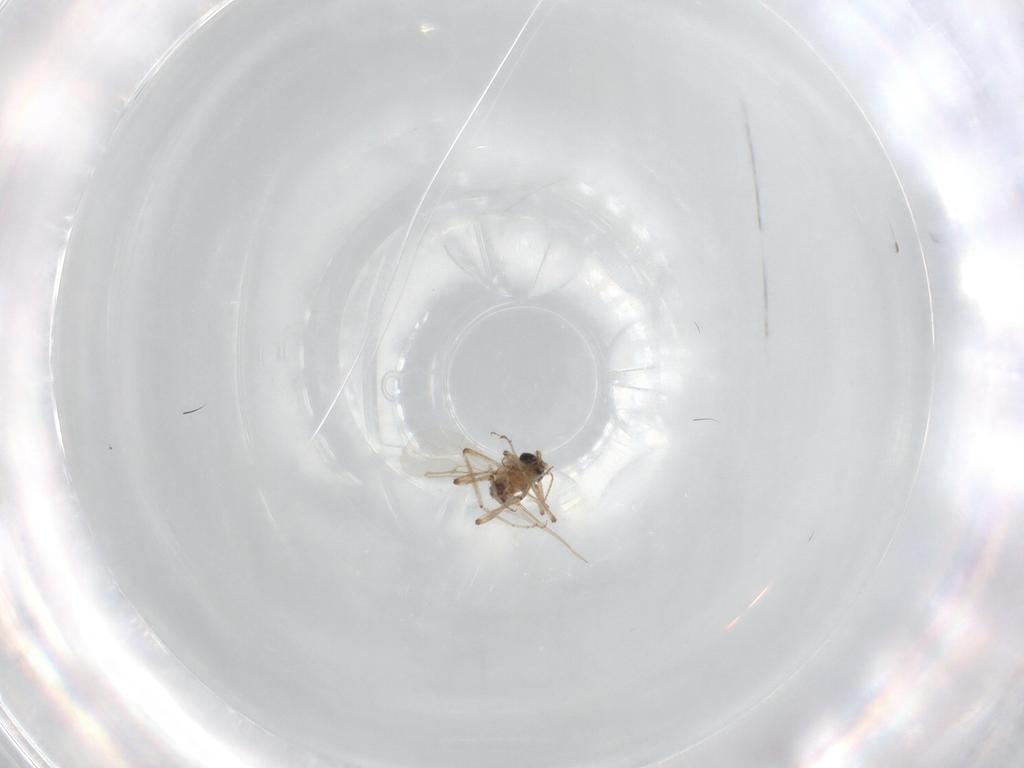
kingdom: Animalia
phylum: Arthropoda
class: Insecta
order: Diptera
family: Ceratopogonidae
